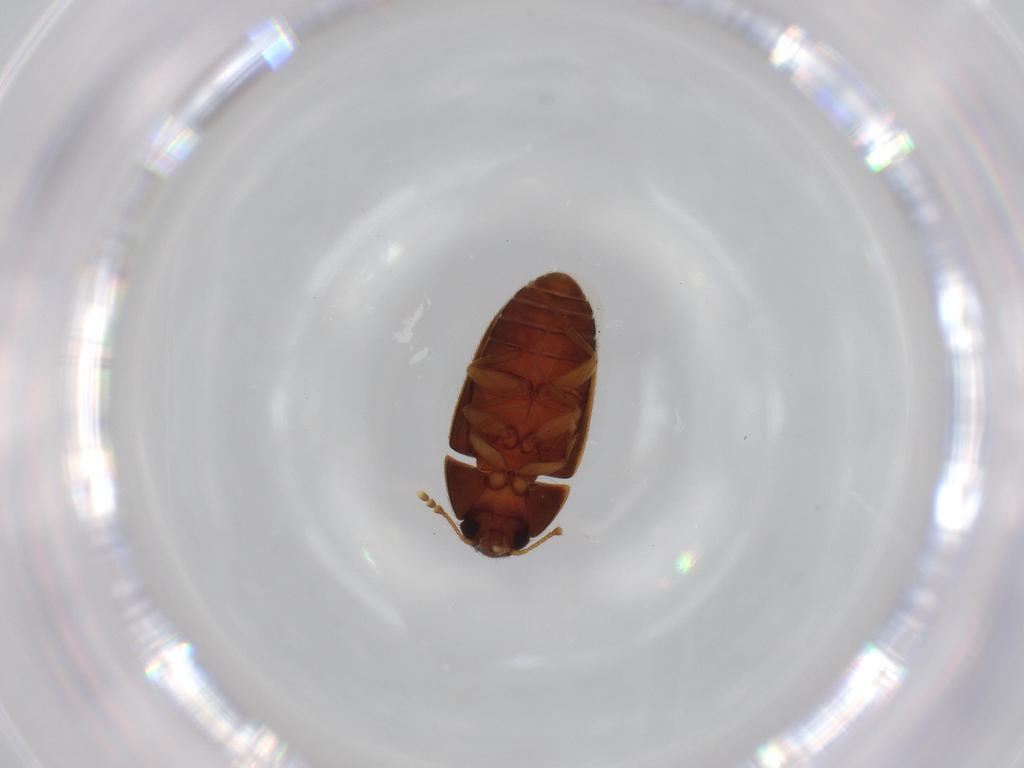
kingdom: Animalia
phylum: Arthropoda
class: Insecta
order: Coleoptera
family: Mycetophagidae
